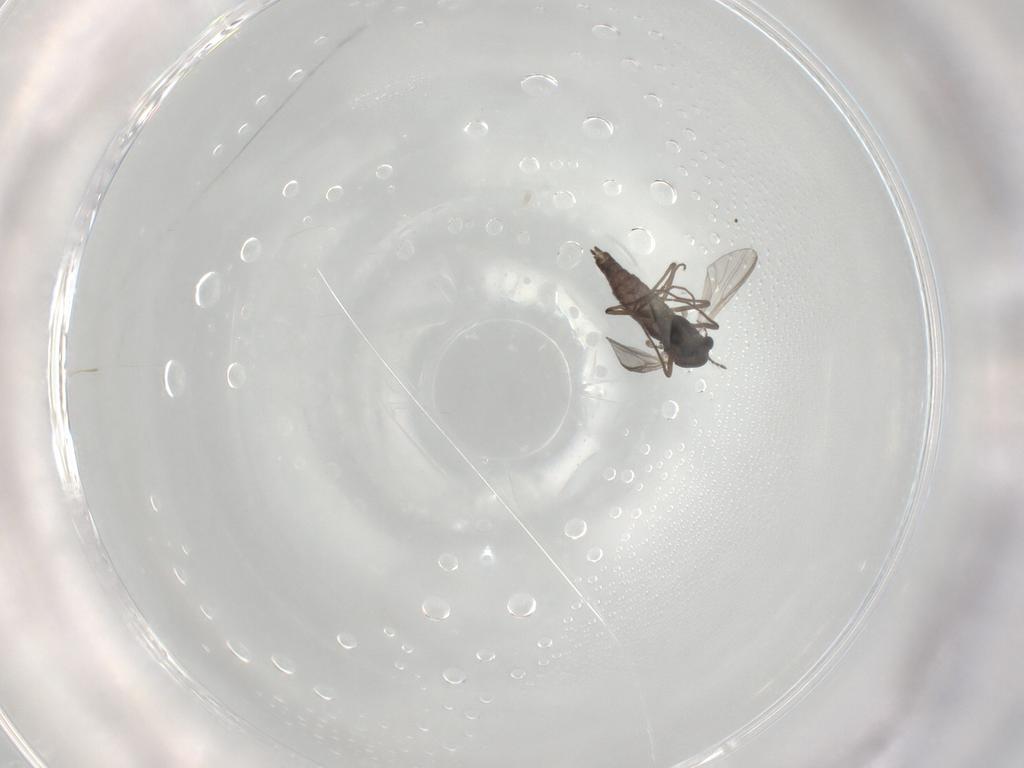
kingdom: Animalia
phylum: Arthropoda
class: Insecta
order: Diptera
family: Chironomidae
